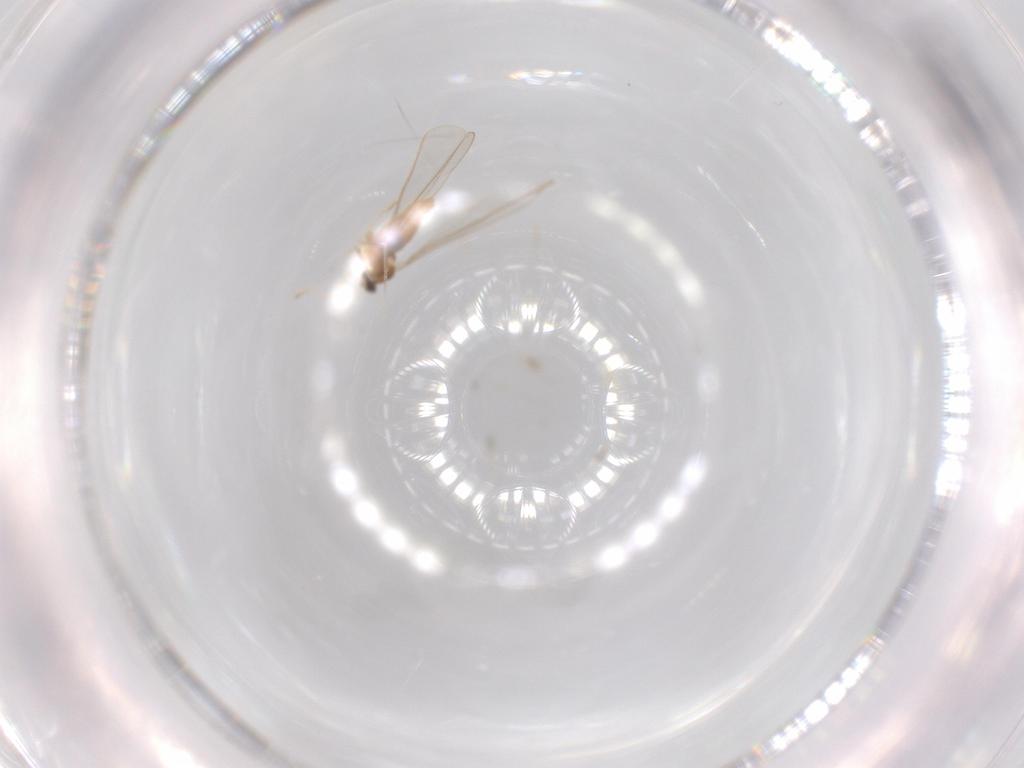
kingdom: Animalia
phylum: Arthropoda
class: Insecta
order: Diptera
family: Cecidomyiidae
